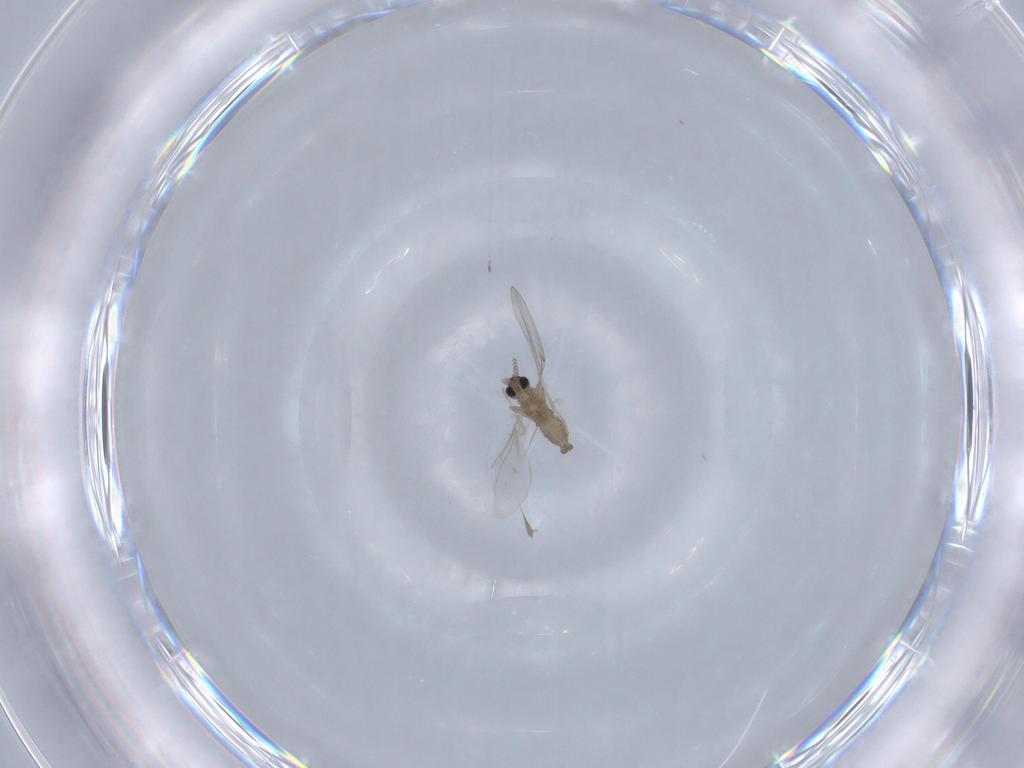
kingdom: Animalia
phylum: Arthropoda
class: Insecta
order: Diptera
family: Cecidomyiidae
